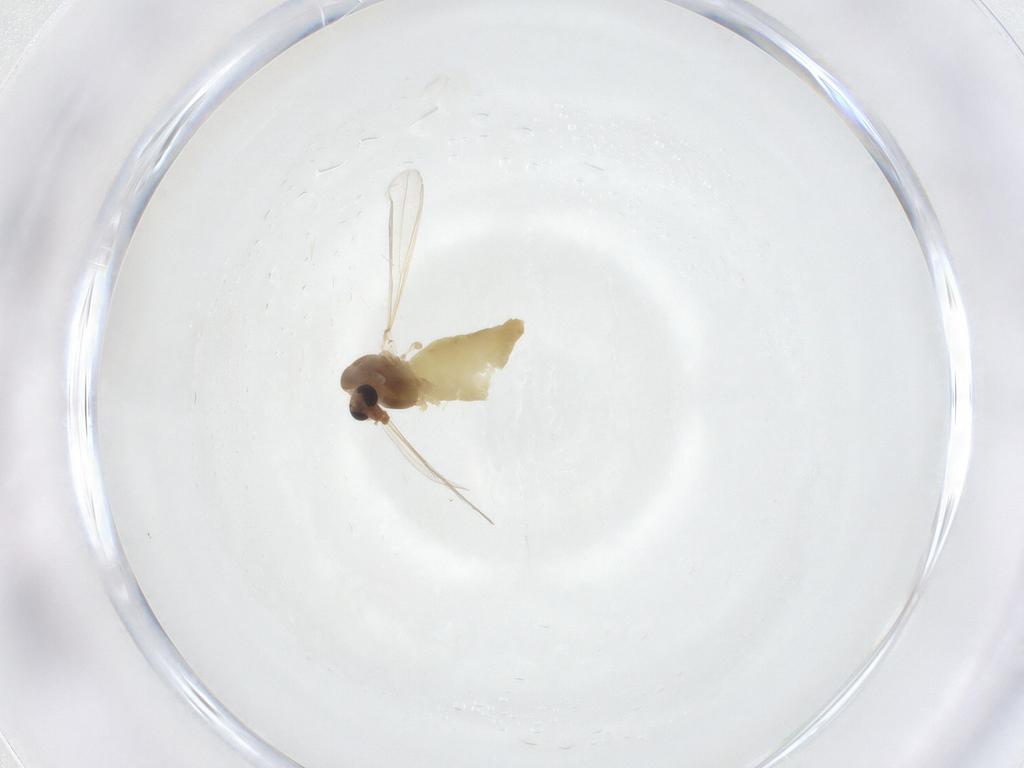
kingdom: Animalia
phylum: Arthropoda
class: Insecta
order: Diptera
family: Chironomidae
